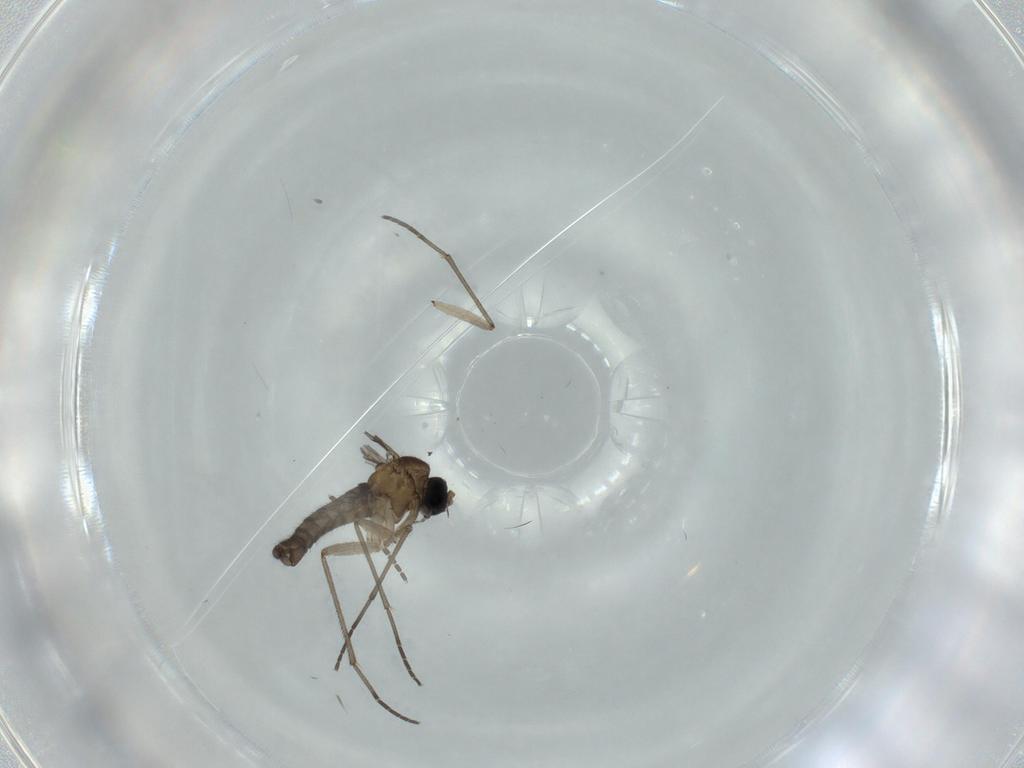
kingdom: Animalia
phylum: Arthropoda
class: Insecta
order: Diptera
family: Sciaridae
